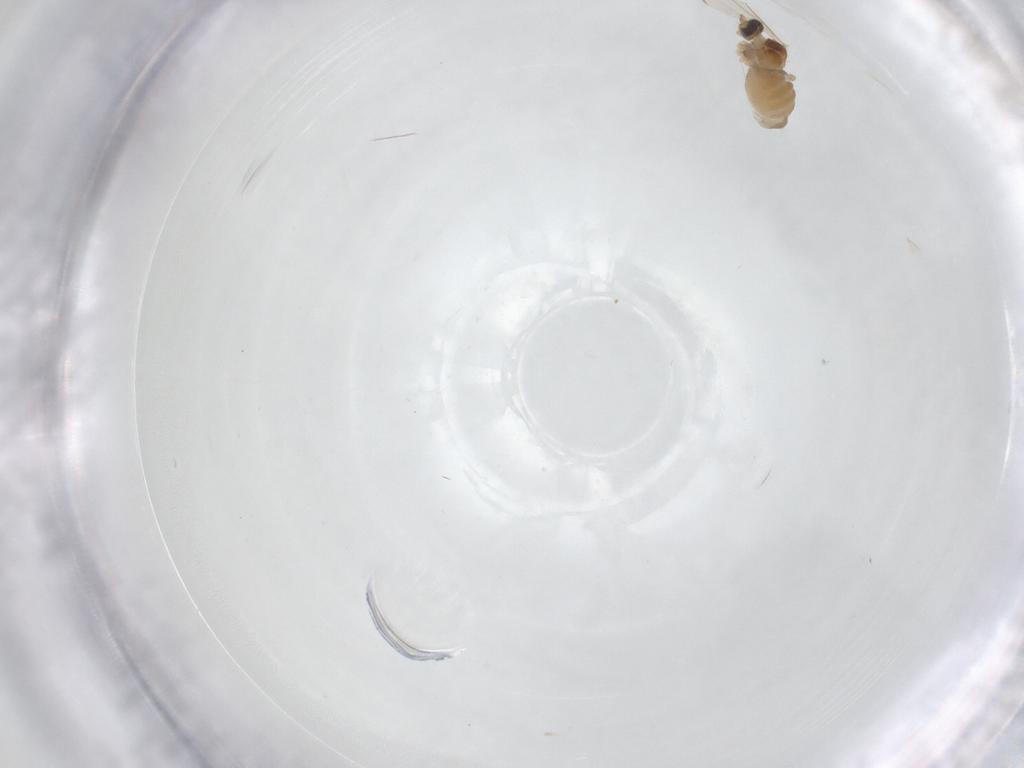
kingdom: Animalia
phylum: Arthropoda
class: Insecta
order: Diptera
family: Cecidomyiidae
